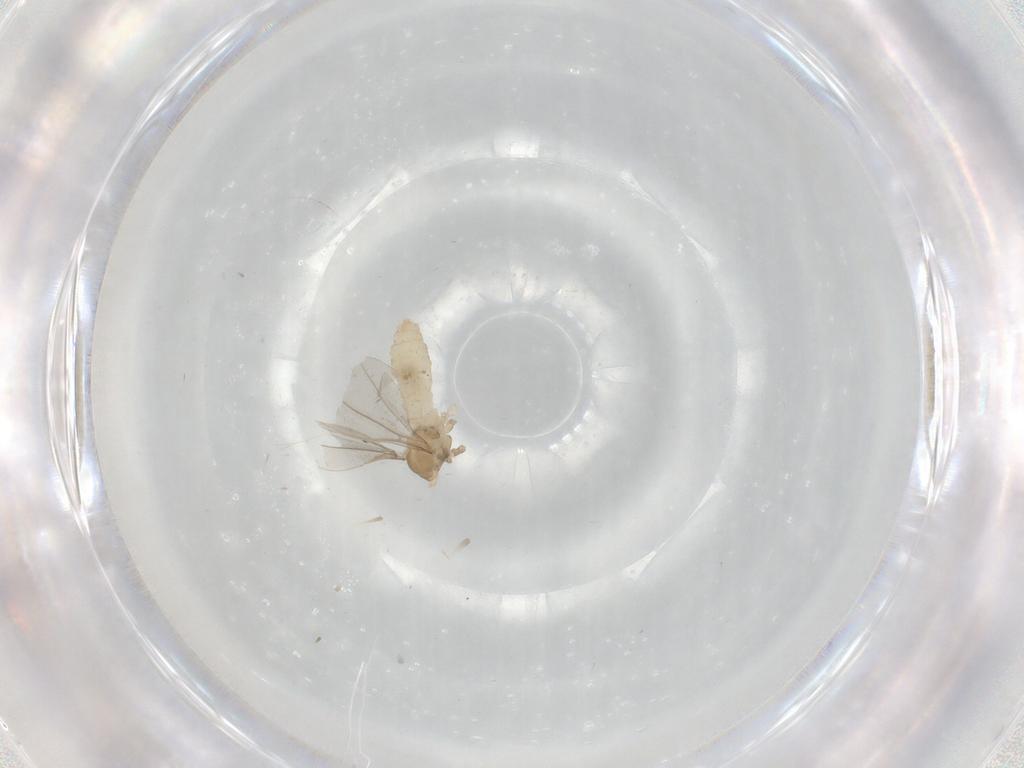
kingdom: Animalia
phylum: Arthropoda
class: Insecta
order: Diptera
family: Cecidomyiidae
